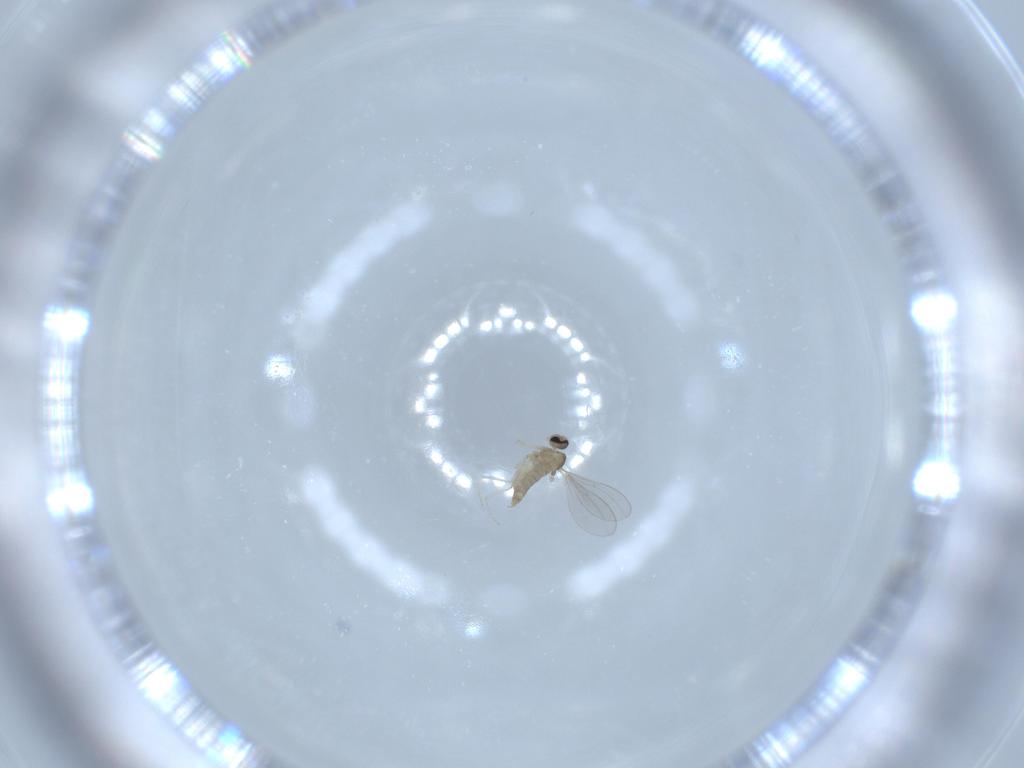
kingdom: Animalia
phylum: Arthropoda
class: Insecta
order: Diptera
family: Cecidomyiidae
